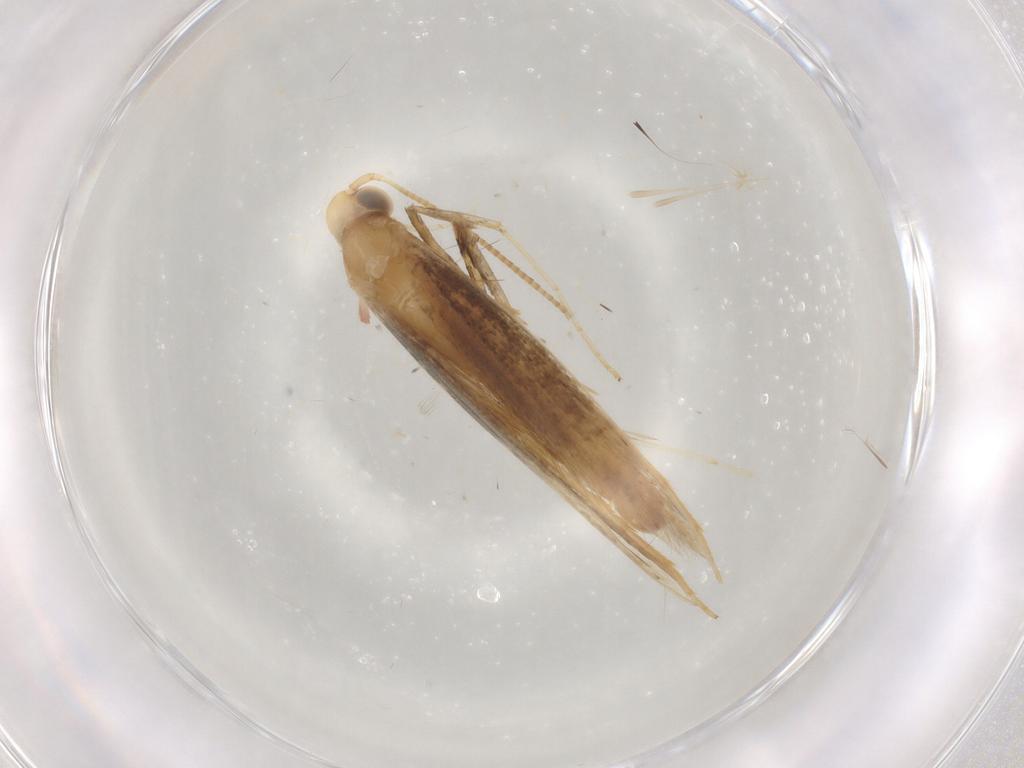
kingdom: Animalia
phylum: Arthropoda
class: Insecta
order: Lepidoptera
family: Gracillariidae
